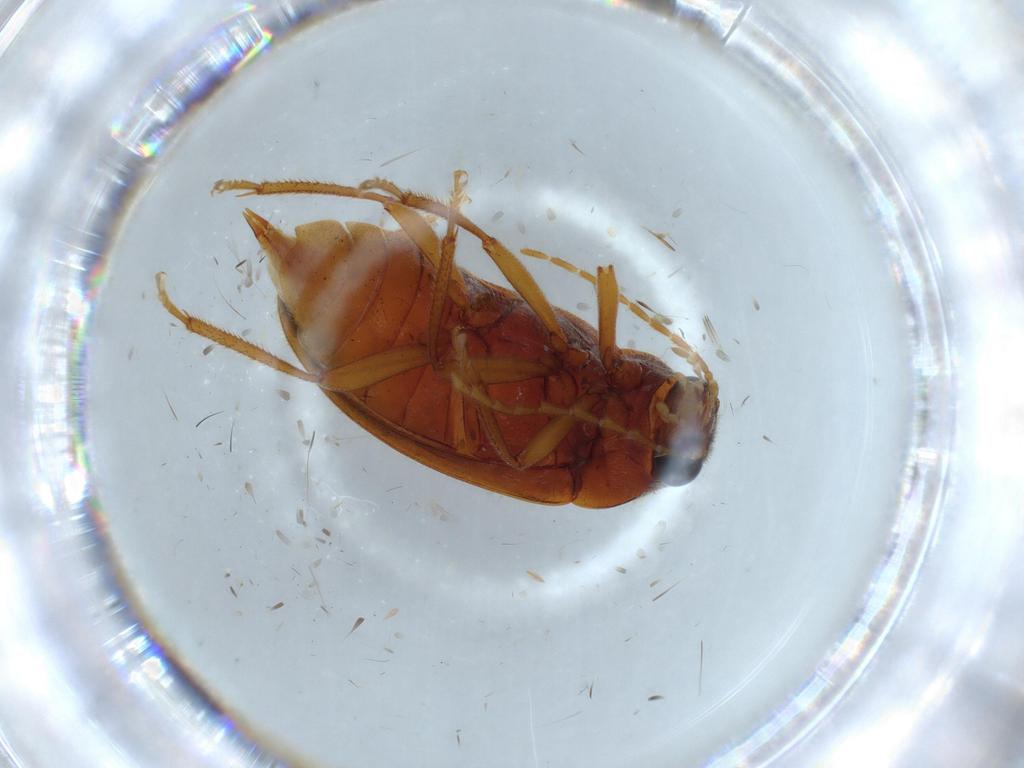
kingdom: Animalia
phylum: Arthropoda
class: Insecta
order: Coleoptera
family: Ptilodactylidae
